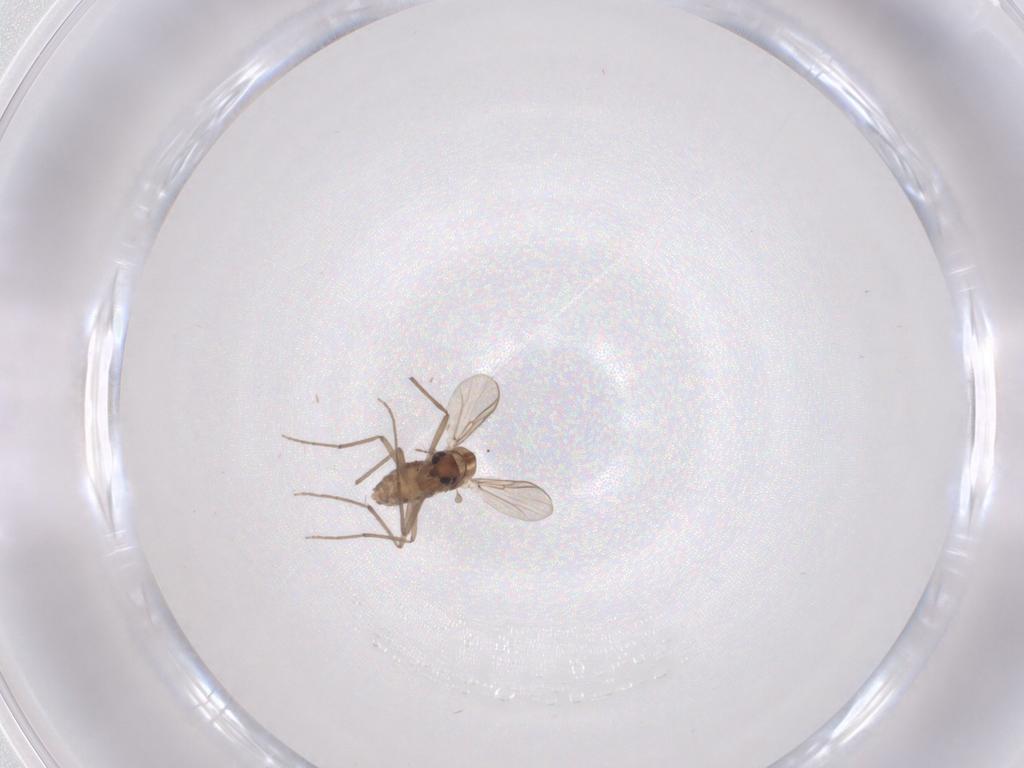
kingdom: Animalia
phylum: Arthropoda
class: Insecta
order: Diptera
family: Chironomidae
